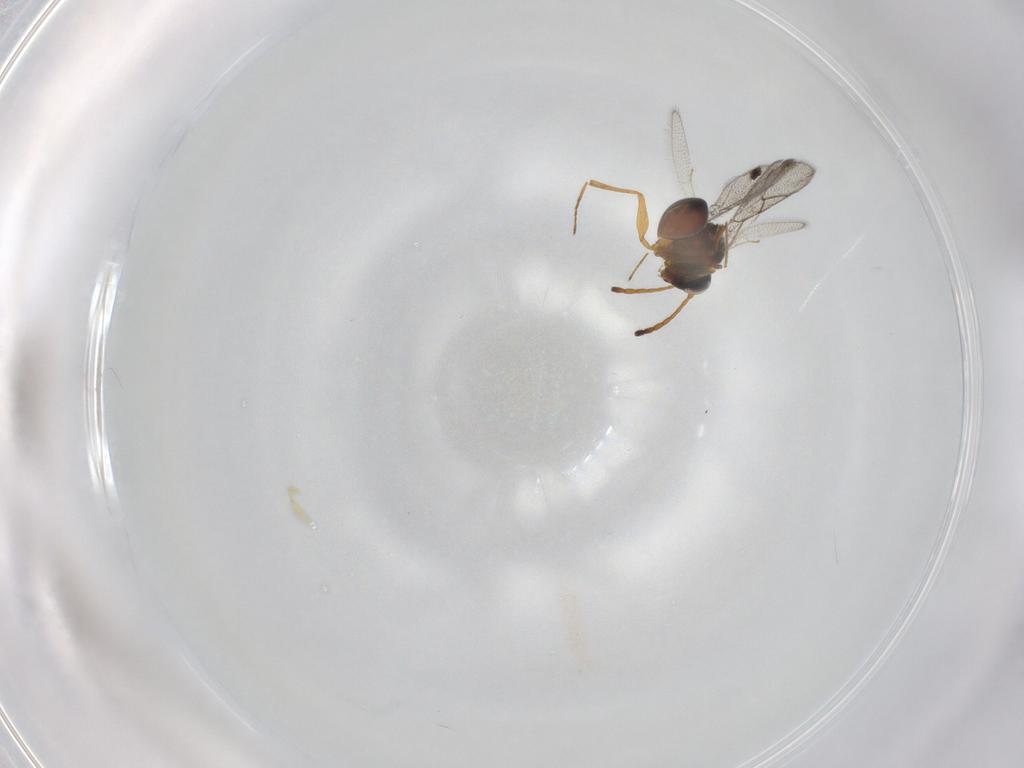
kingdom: Animalia
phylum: Arthropoda
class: Insecta
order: Hymenoptera
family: Figitidae
